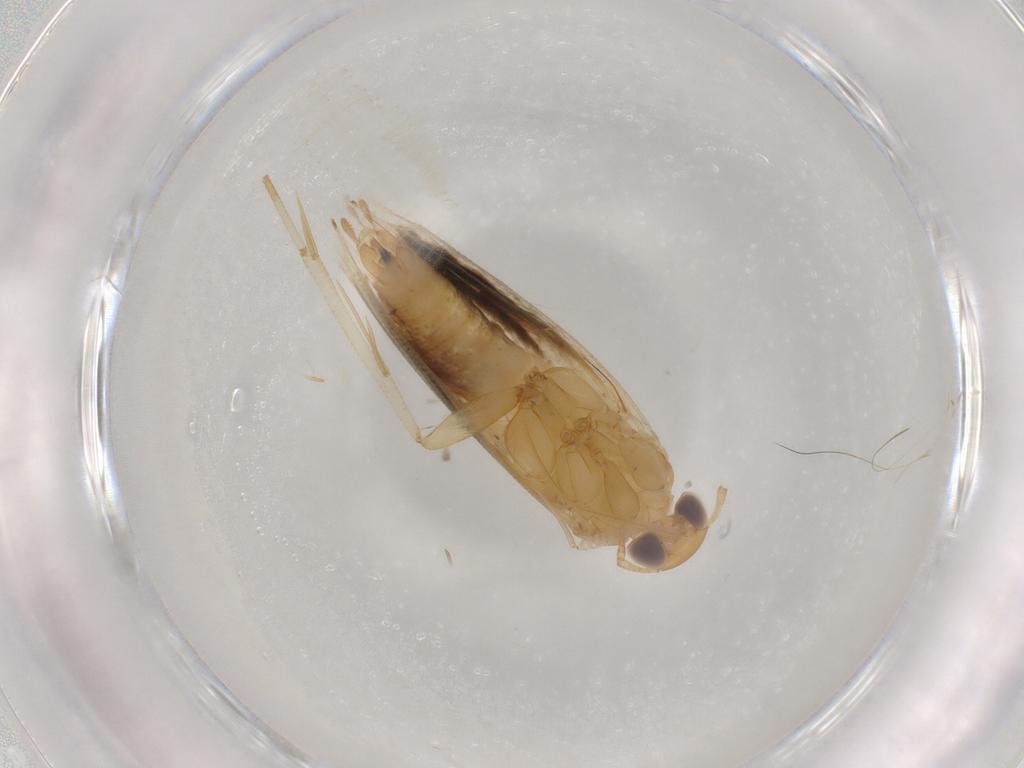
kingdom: Animalia
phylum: Arthropoda
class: Insecta
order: Lepidoptera
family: Momphidae
